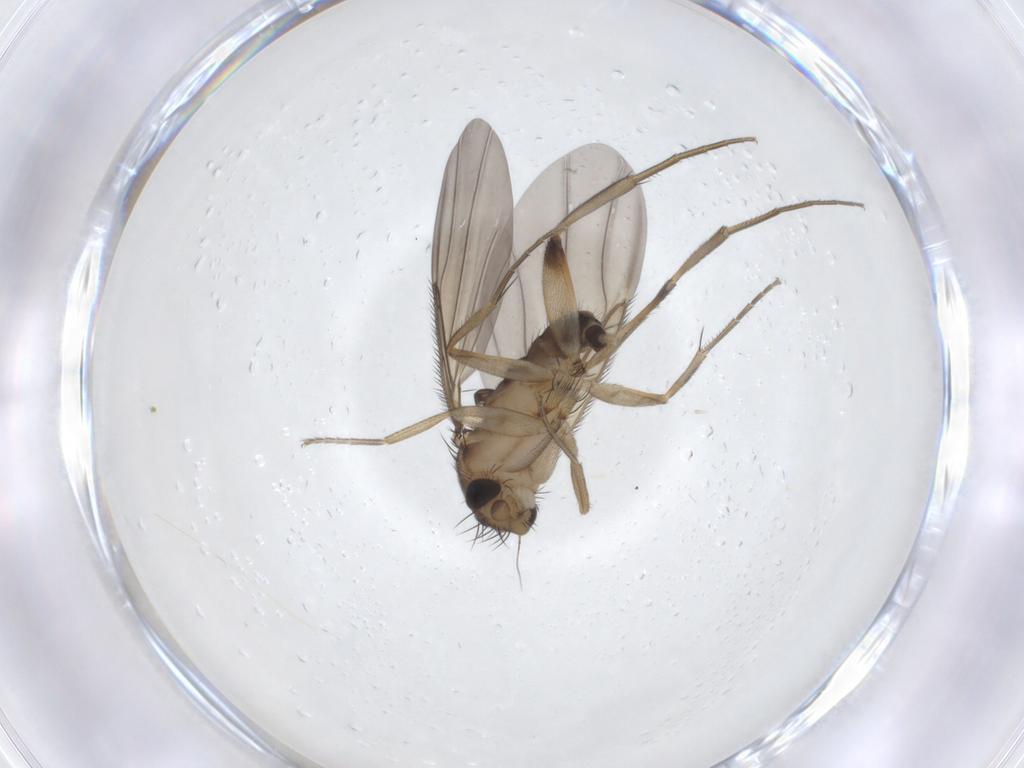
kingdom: Animalia
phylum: Arthropoda
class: Insecta
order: Diptera
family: Phoridae
